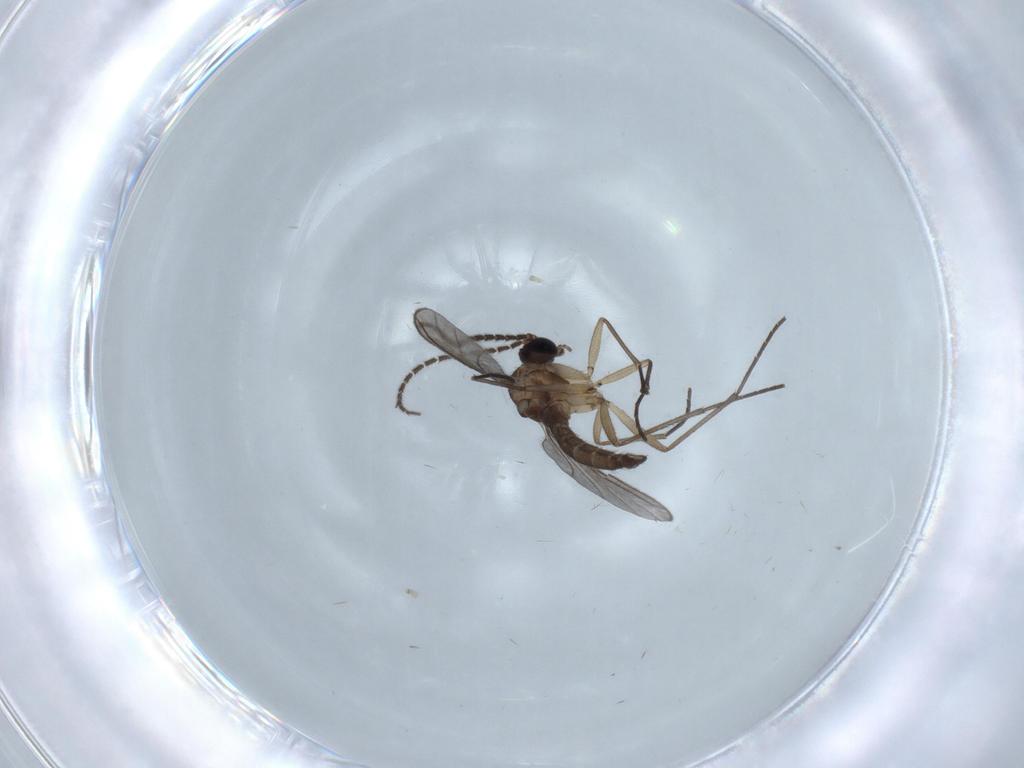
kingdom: Animalia
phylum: Arthropoda
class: Insecta
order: Diptera
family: Sciaridae
